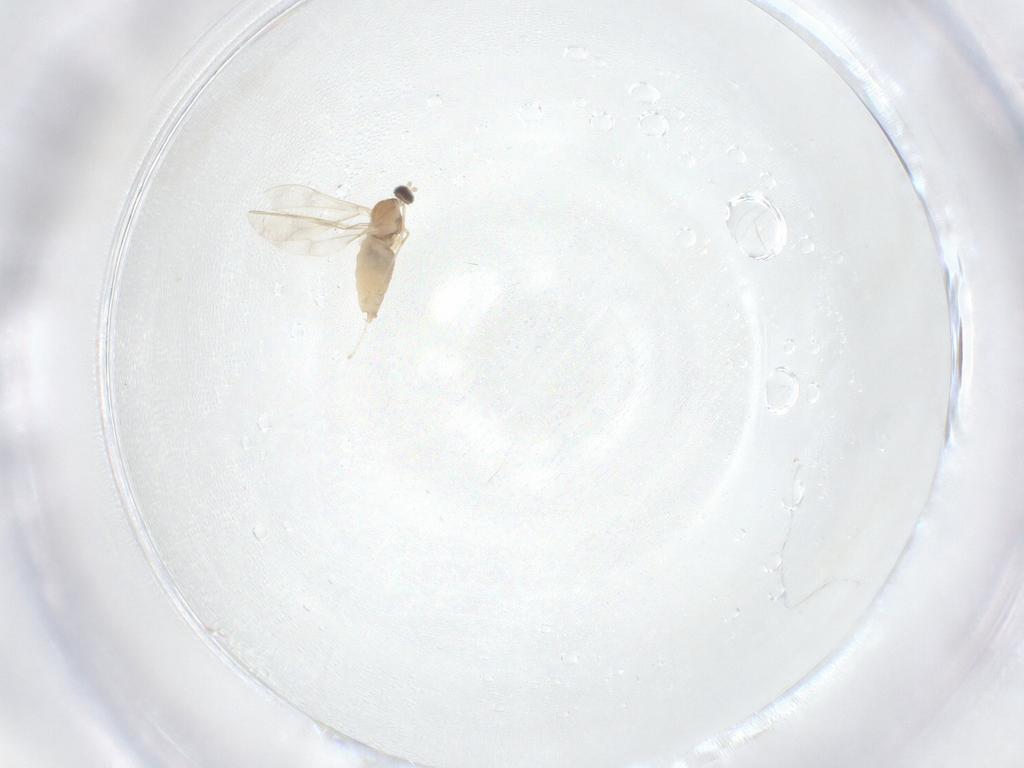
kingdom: Animalia
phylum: Arthropoda
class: Insecta
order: Diptera
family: Cecidomyiidae
